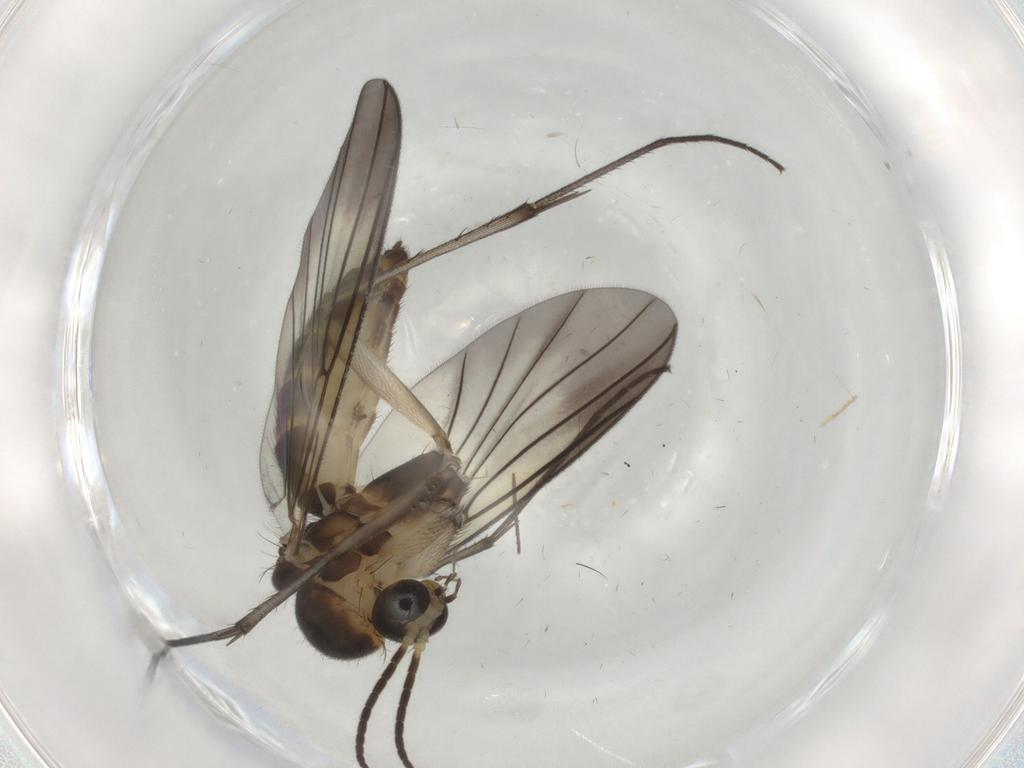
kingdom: Animalia
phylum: Arthropoda
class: Insecta
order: Diptera
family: Mycetophilidae
